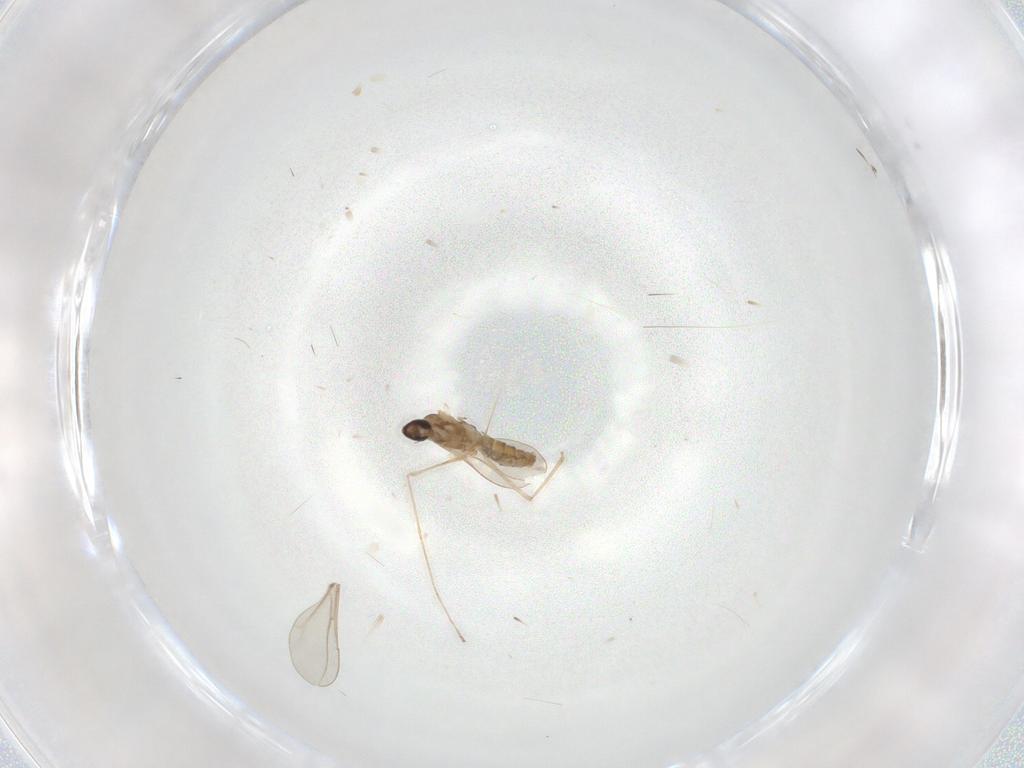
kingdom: Animalia
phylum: Arthropoda
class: Insecta
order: Diptera
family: Cecidomyiidae
